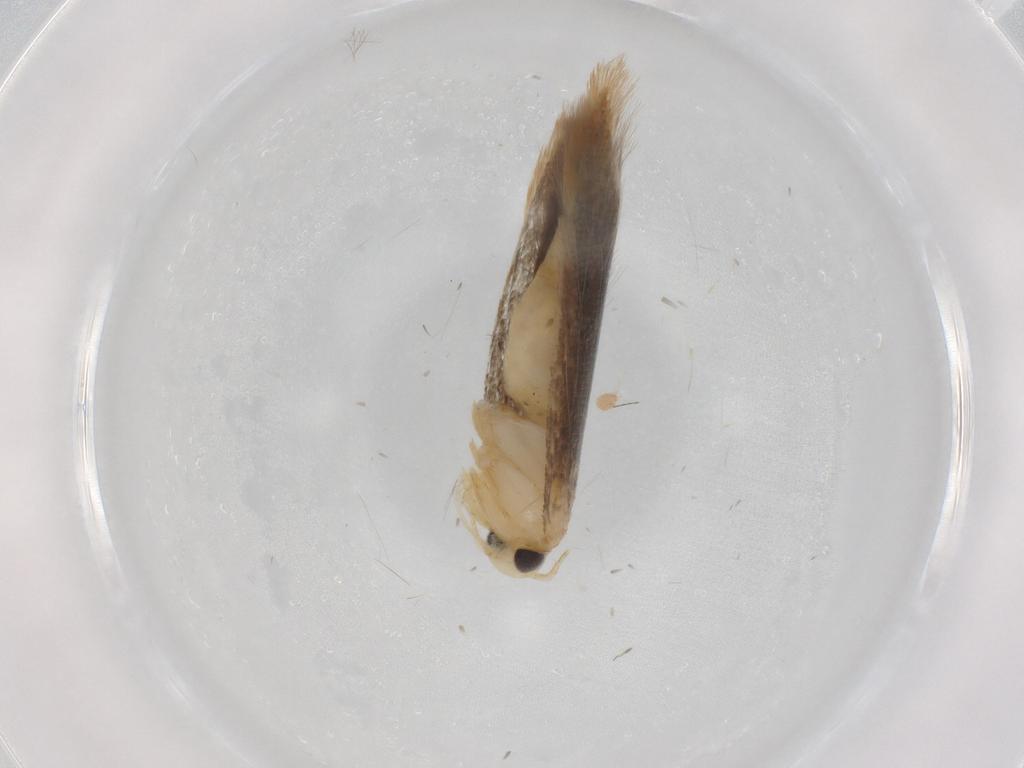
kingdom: Animalia
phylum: Arthropoda
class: Insecta
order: Lepidoptera
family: Gelechiidae
